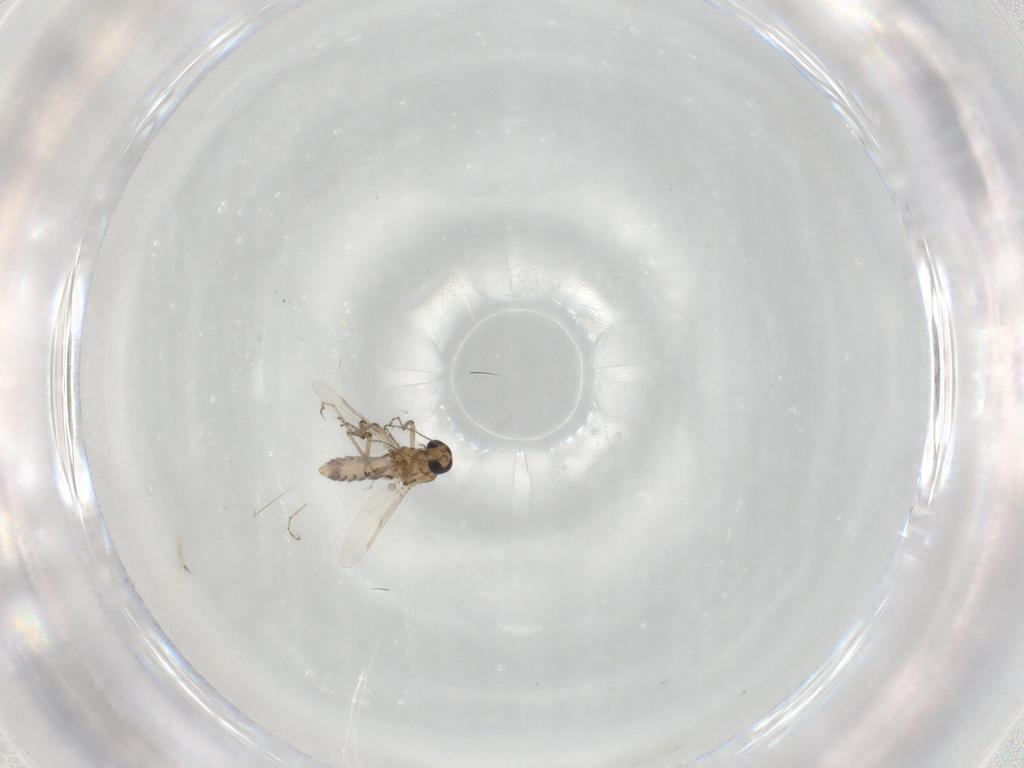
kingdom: Animalia
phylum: Arthropoda
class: Insecta
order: Diptera
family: Ceratopogonidae
